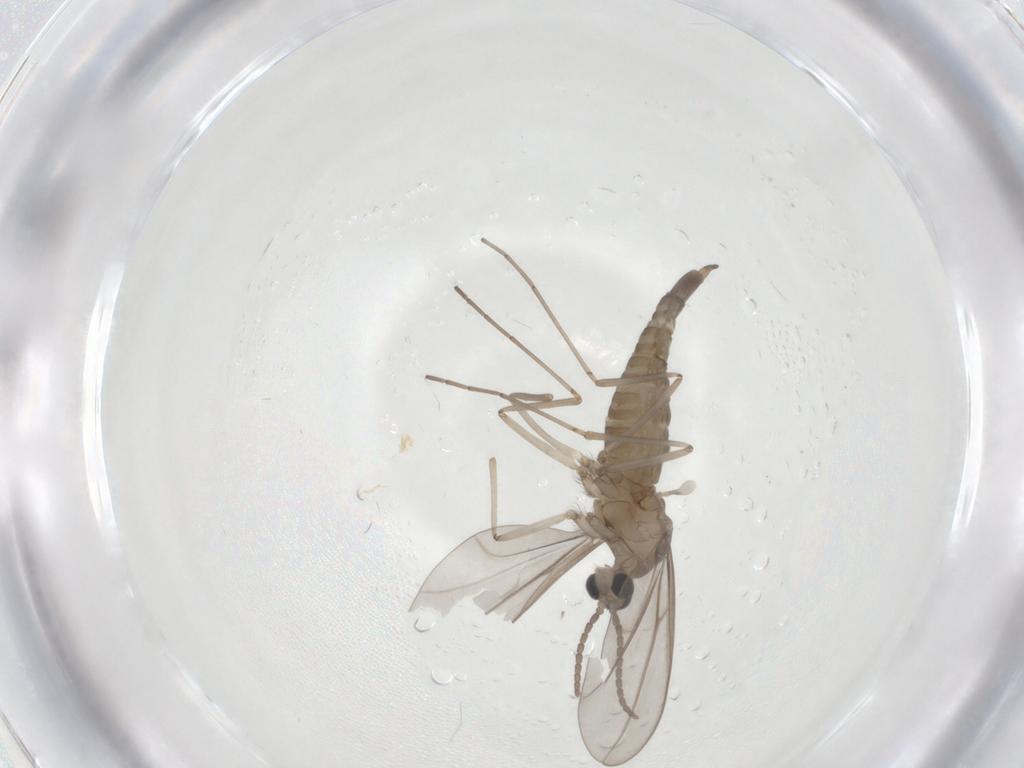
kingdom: Animalia
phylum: Arthropoda
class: Insecta
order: Diptera
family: Cecidomyiidae
